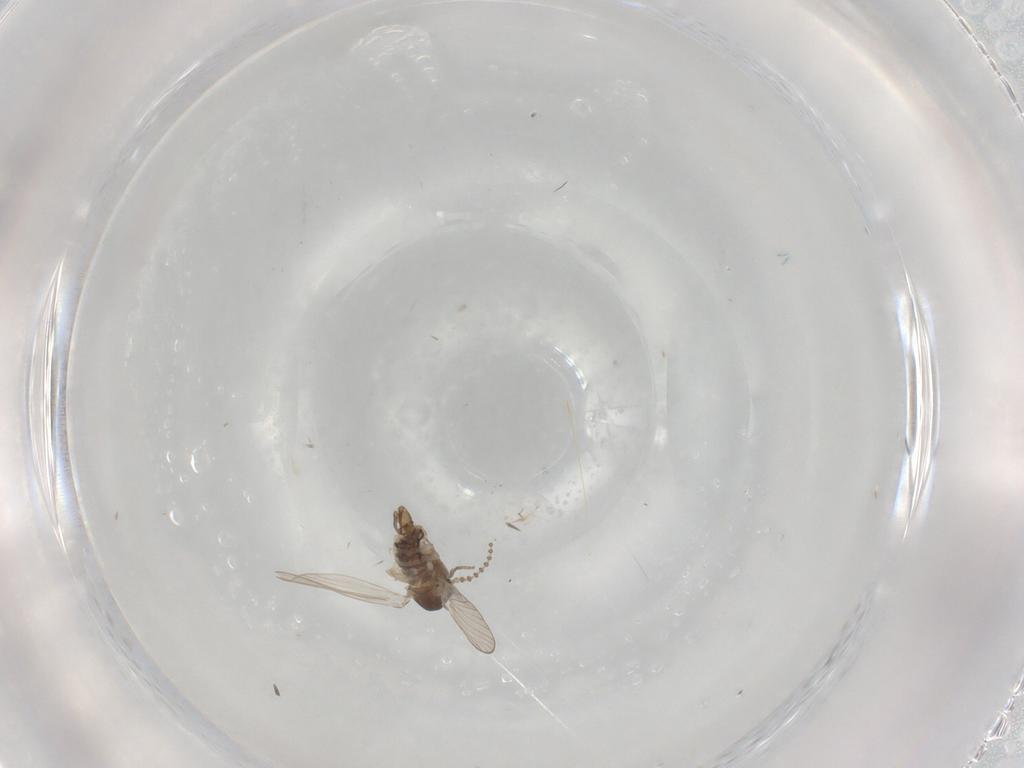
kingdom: Animalia
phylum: Arthropoda
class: Insecta
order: Diptera
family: Psychodidae
